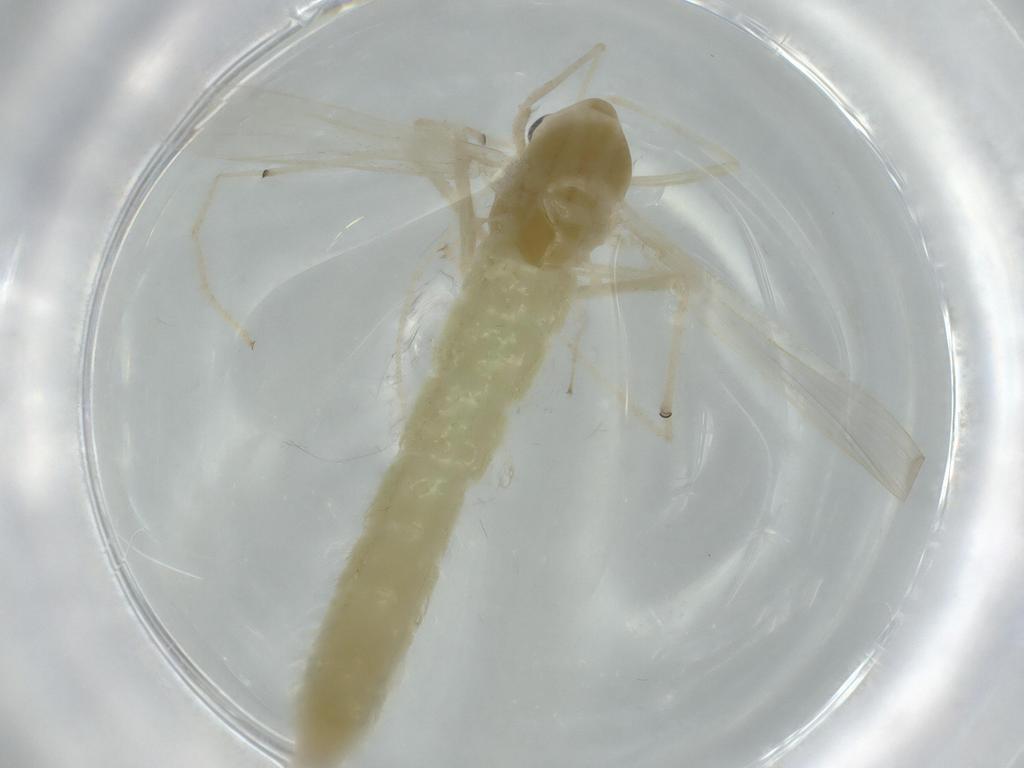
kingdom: Animalia
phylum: Arthropoda
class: Insecta
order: Diptera
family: Chironomidae
